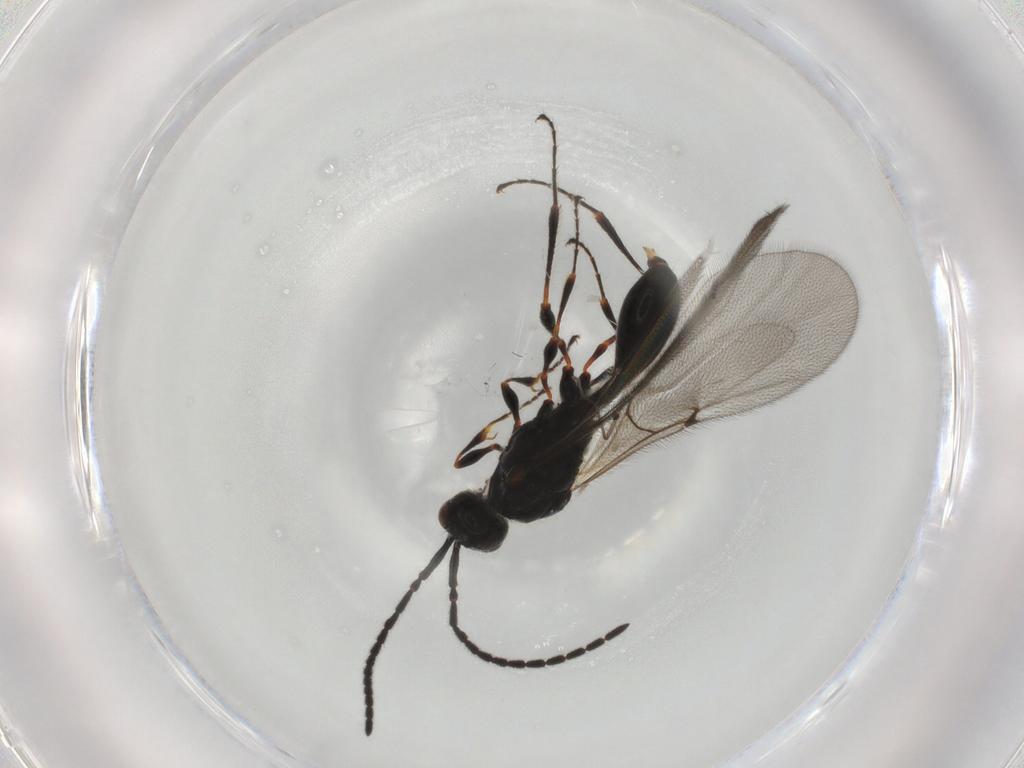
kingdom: Animalia
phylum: Arthropoda
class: Insecta
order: Hymenoptera
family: Diapriidae
